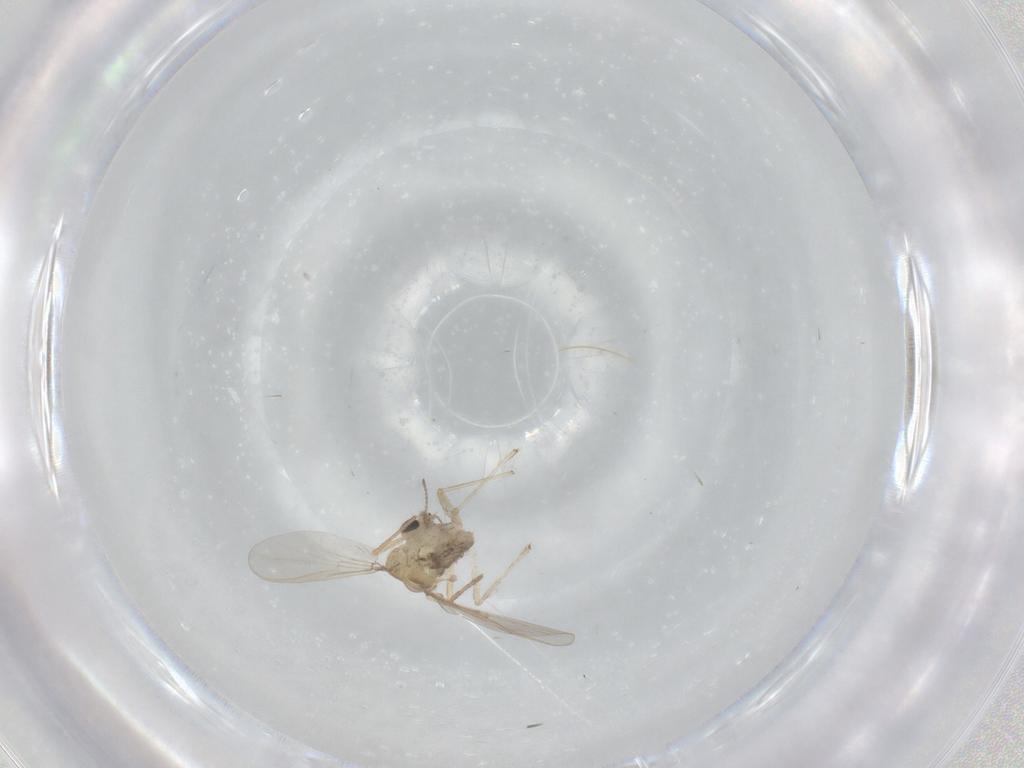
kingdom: Animalia
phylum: Arthropoda
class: Insecta
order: Diptera
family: Chironomidae
